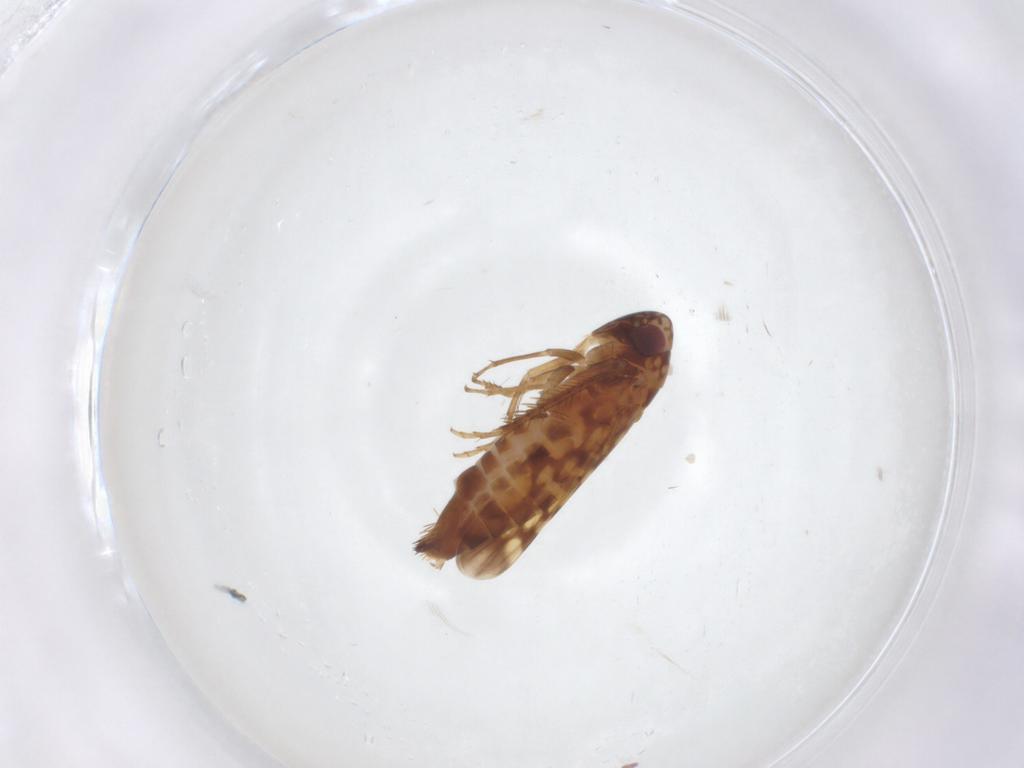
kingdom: Animalia
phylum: Arthropoda
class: Insecta
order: Hemiptera
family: Cicadellidae
